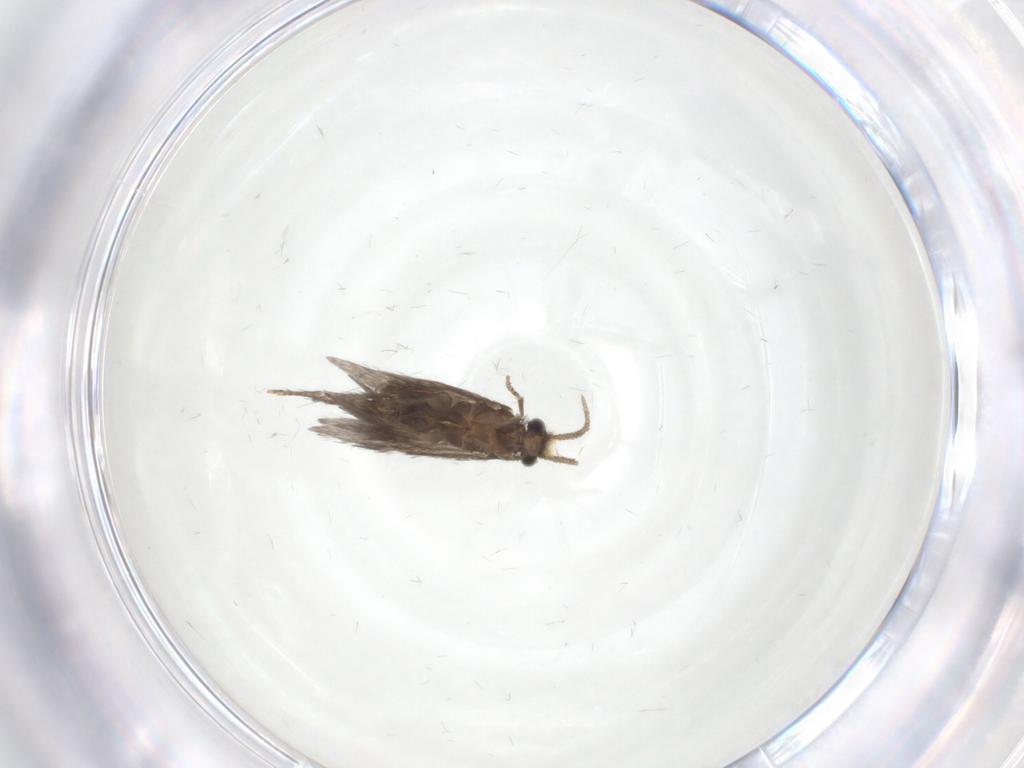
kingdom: Animalia
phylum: Arthropoda
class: Insecta
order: Trichoptera
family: Hydroptilidae
